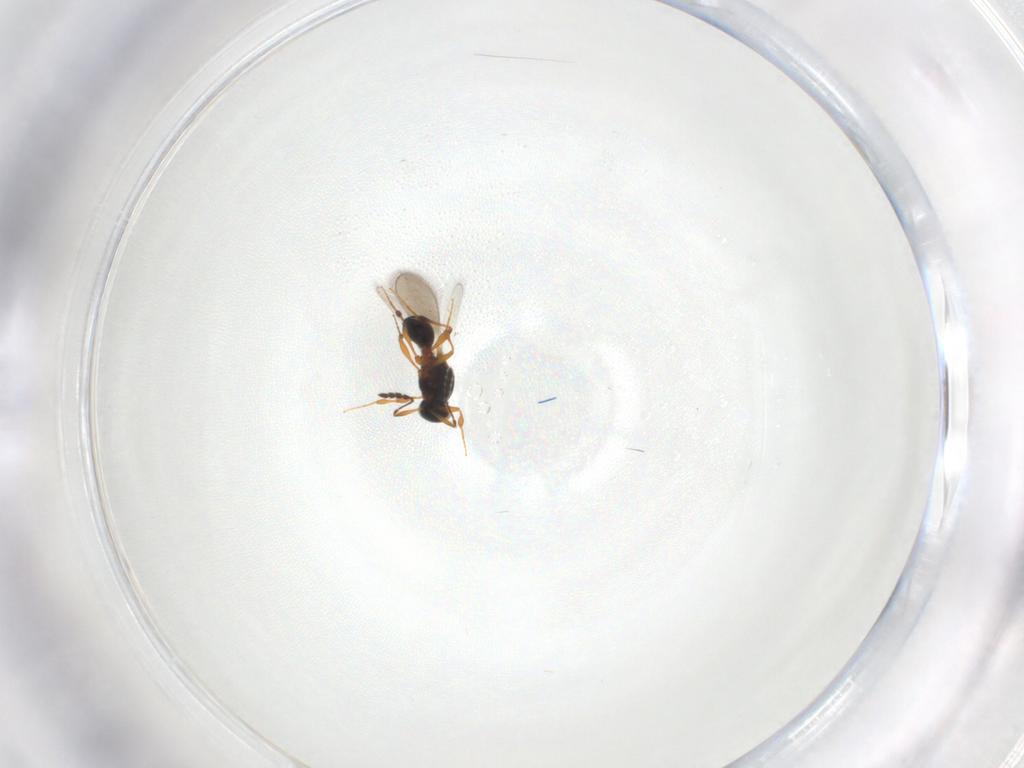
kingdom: Animalia
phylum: Arthropoda
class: Insecta
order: Hymenoptera
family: Platygastridae
